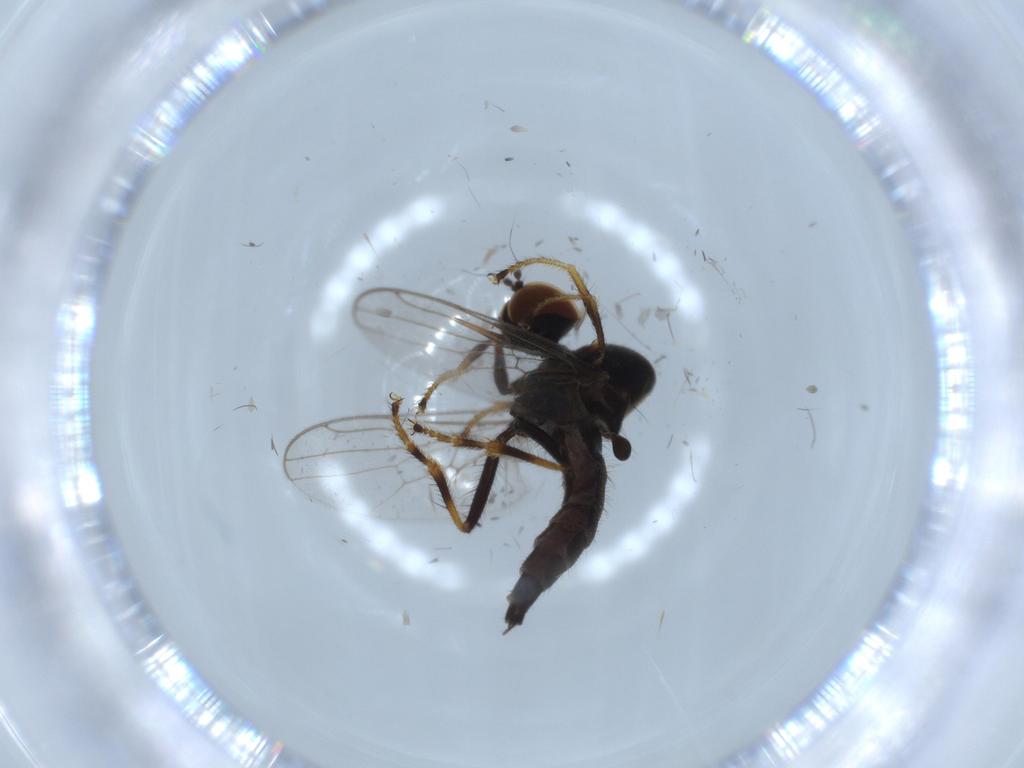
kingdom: Animalia
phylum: Arthropoda
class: Insecta
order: Diptera
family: Hybotidae
